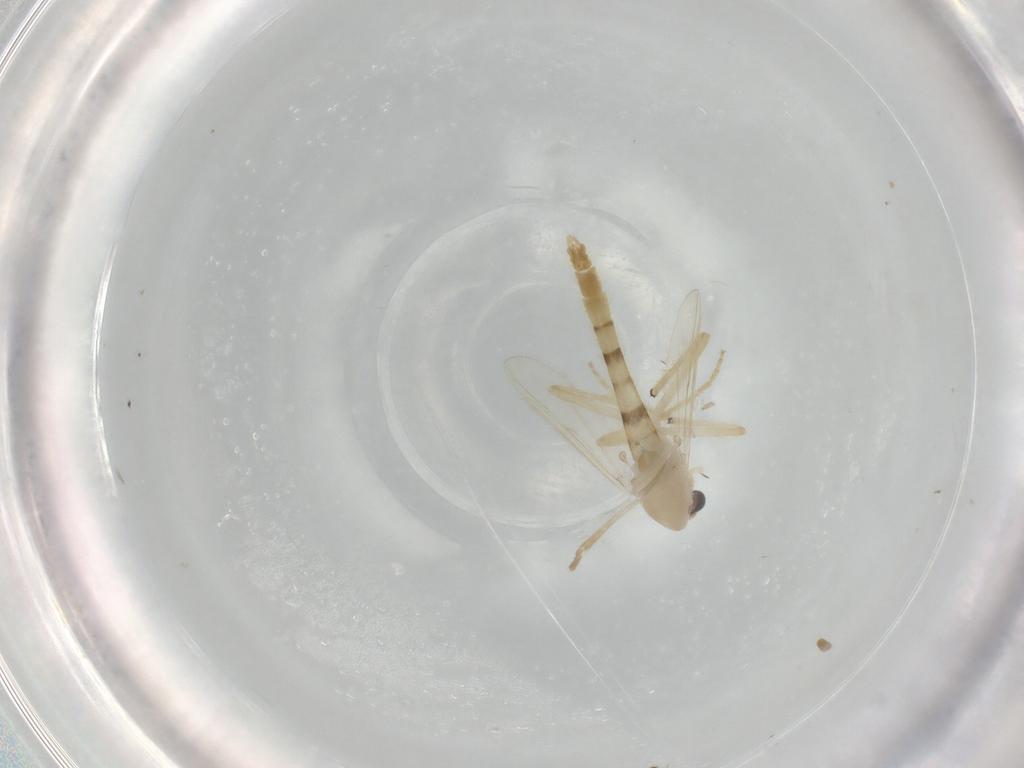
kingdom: Animalia
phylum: Arthropoda
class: Insecta
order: Diptera
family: Cecidomyiidae
